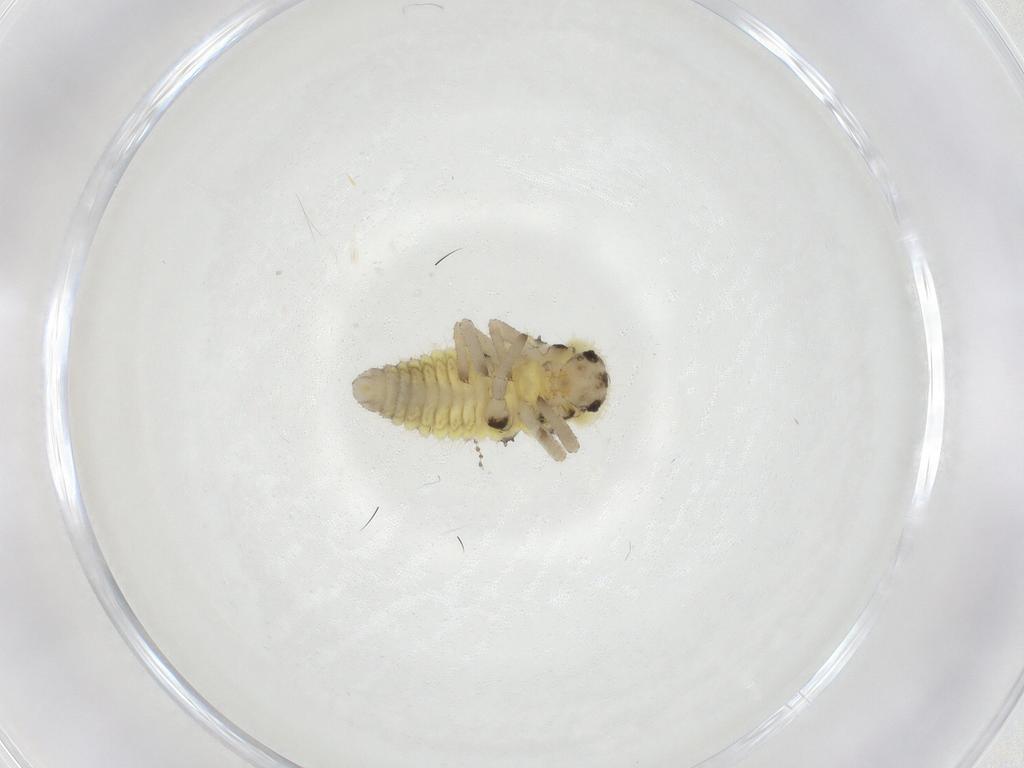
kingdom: Animalia
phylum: Arthropoda
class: Insecta
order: Coleoptera
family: Coccinellidae
